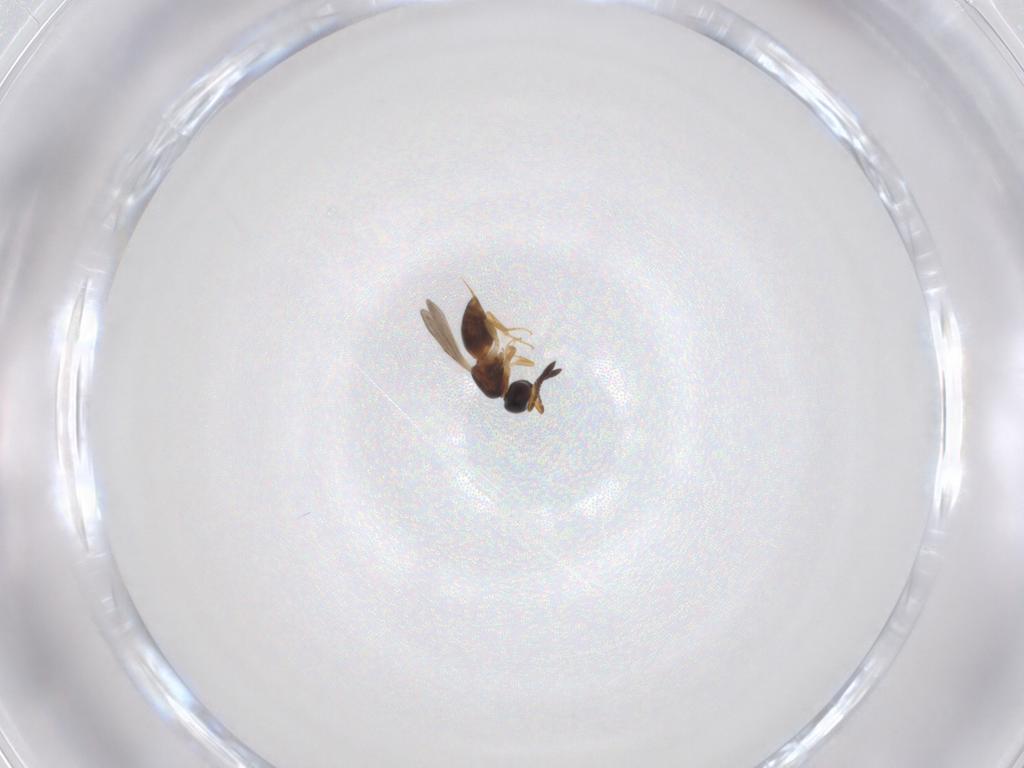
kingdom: Animalia
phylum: Arthropoda
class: Insecta
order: Hymenoptera
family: Ceraphronidae
